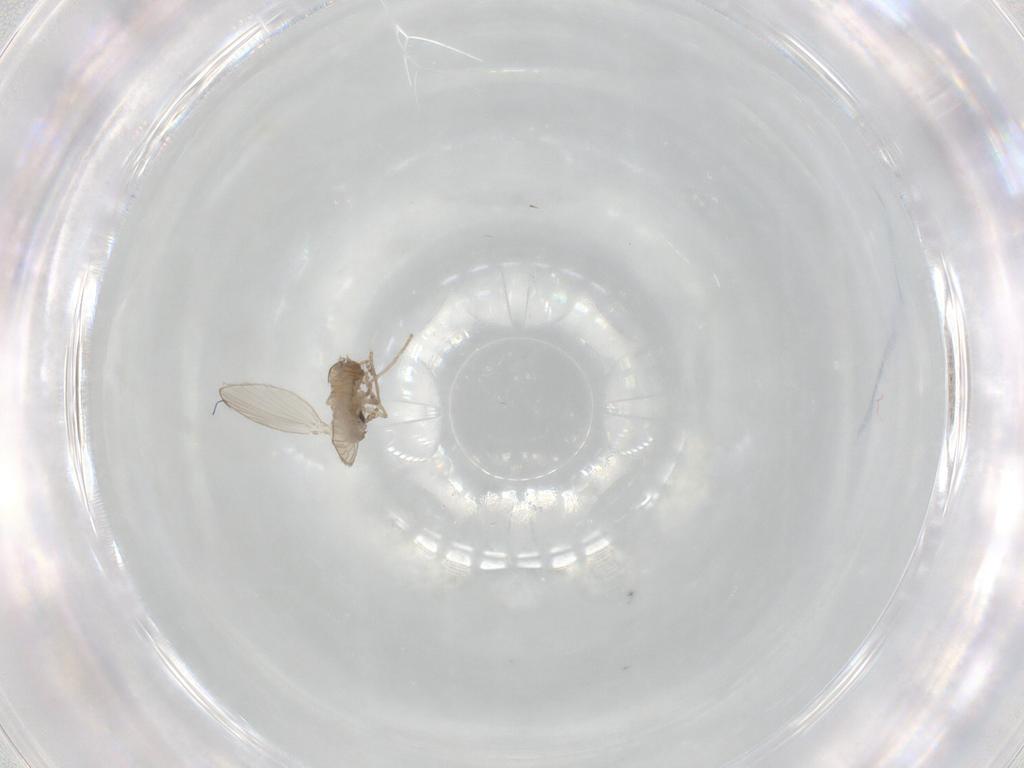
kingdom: Animalia
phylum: Arthropoda
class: Insecta
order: Diptera
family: Psychodidae
